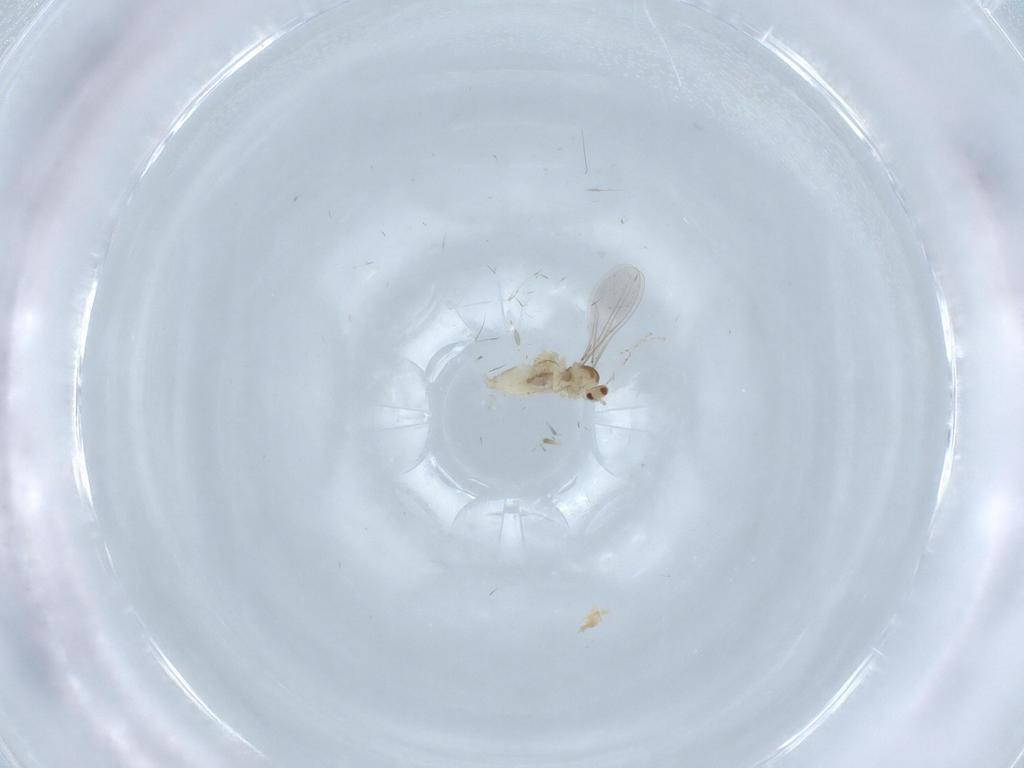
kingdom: Animalia
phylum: Arthropoda
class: Insecta
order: Diptera
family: Cecidomyiidae
